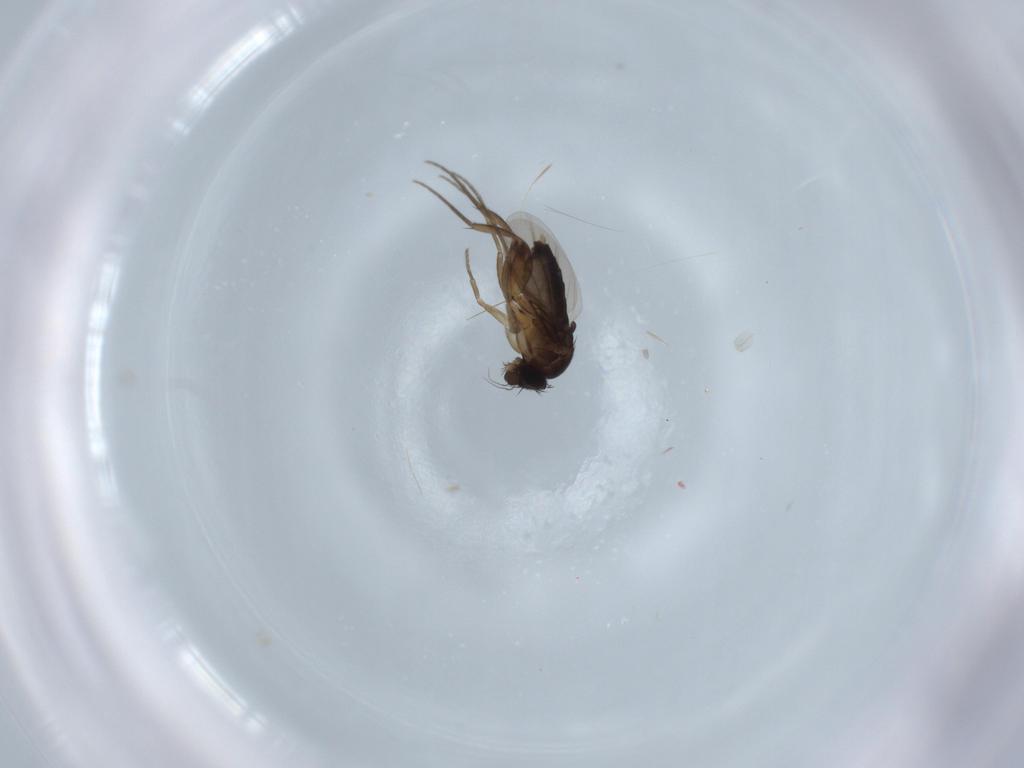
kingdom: Animalia
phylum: Arthropoda
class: Insecta
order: Diptera
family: Phoridae
